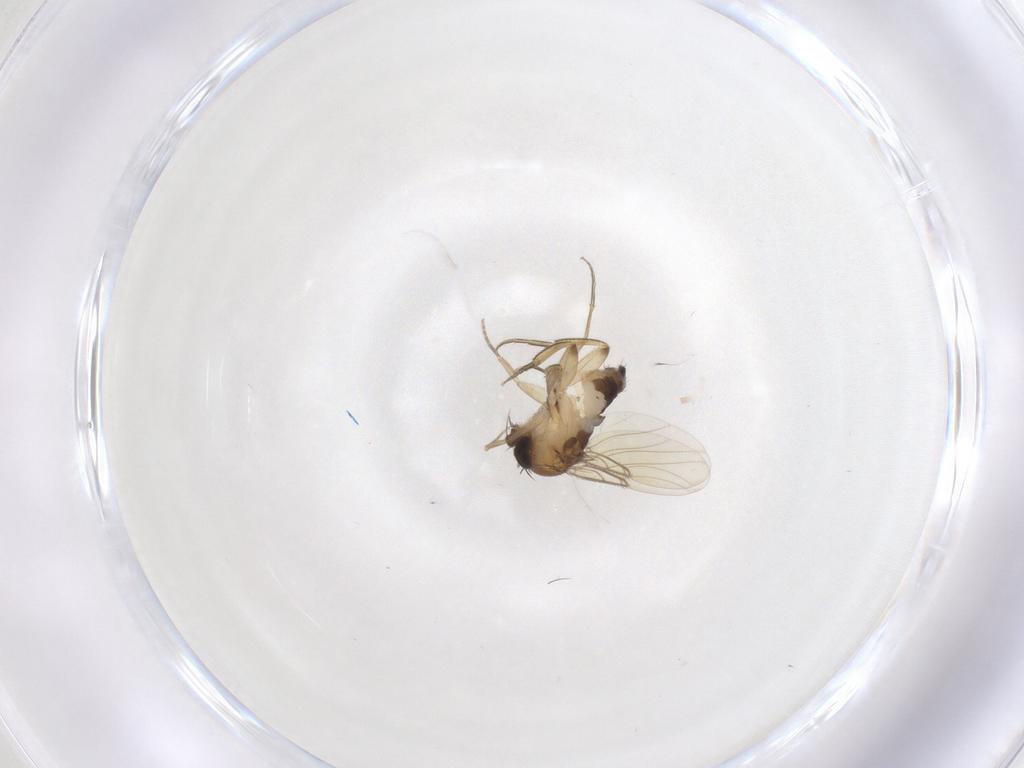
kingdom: Animalia
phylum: Arthropoda
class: Insecta
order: Diptera
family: Phoridae
